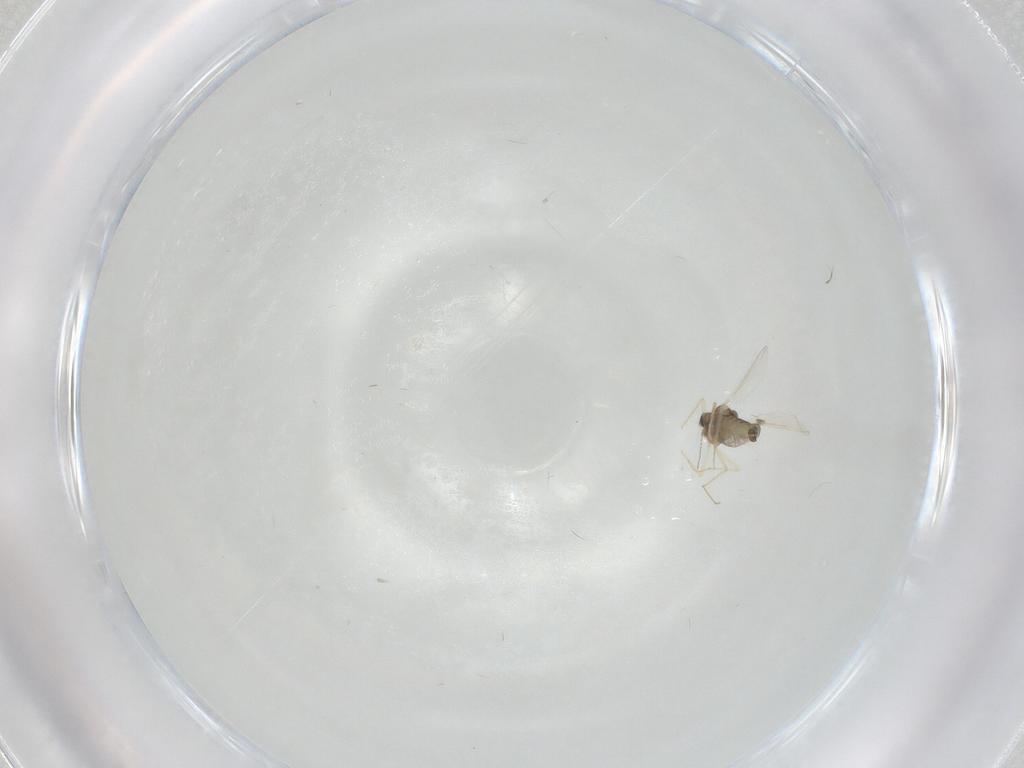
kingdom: Animalia
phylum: Arthropoda
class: Insecta
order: Diptera
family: Chironomidae
